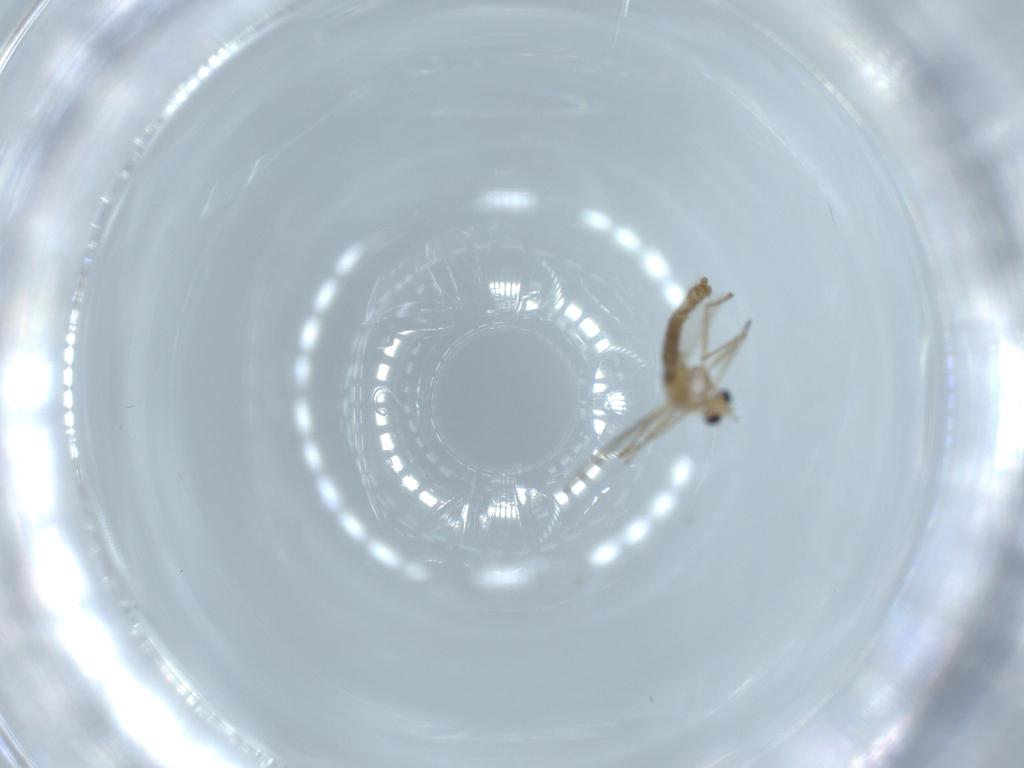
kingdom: Animalia
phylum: Arthropoda
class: Insecta
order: Diptera
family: Chironomidae
